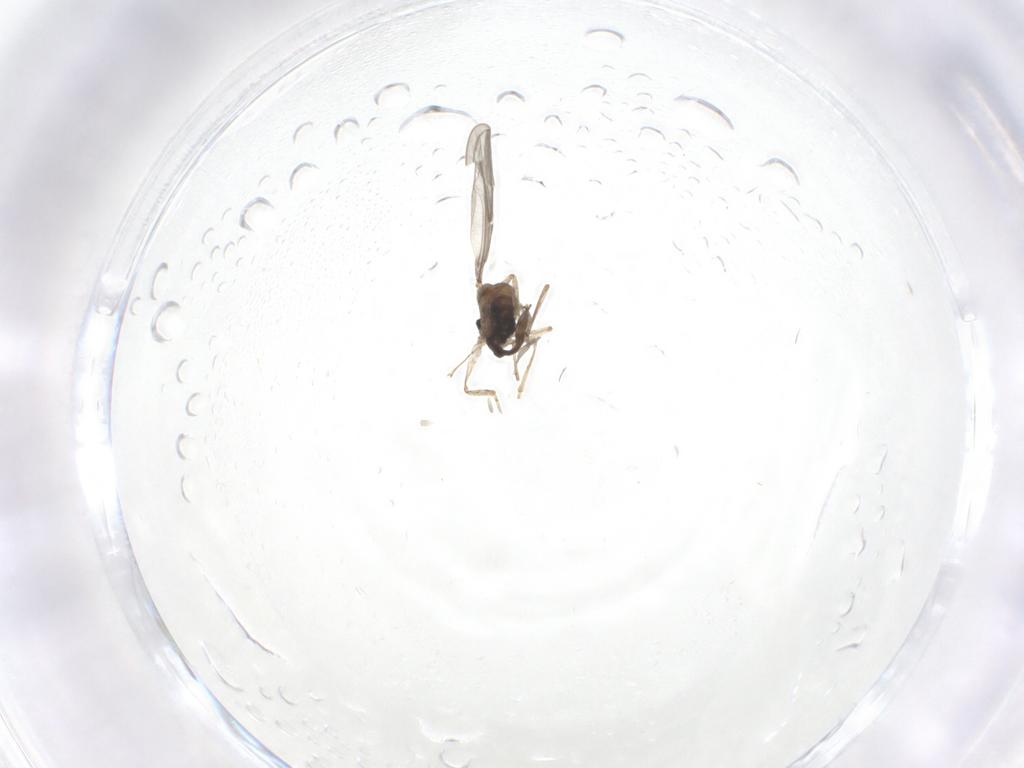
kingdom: Animalia
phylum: Arthropoda
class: Insecta
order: Diptera
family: Cecidomyiidae
